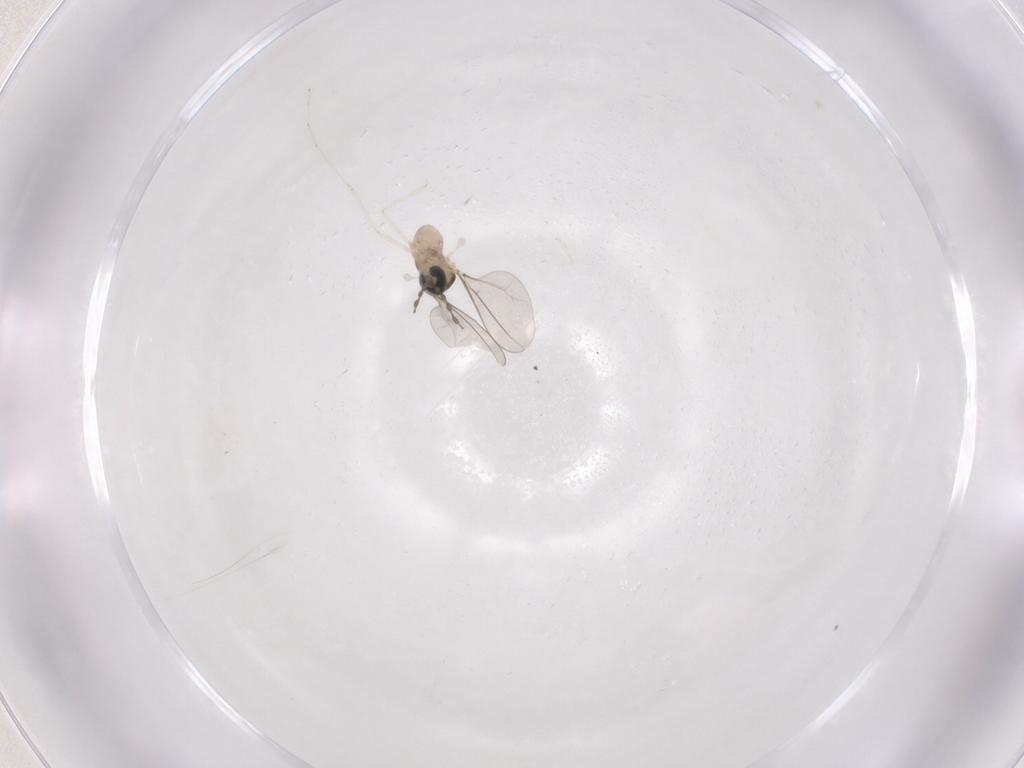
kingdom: Animalia
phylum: Arthropoda
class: Insecta
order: Diptera
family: Cecidomyiidae
